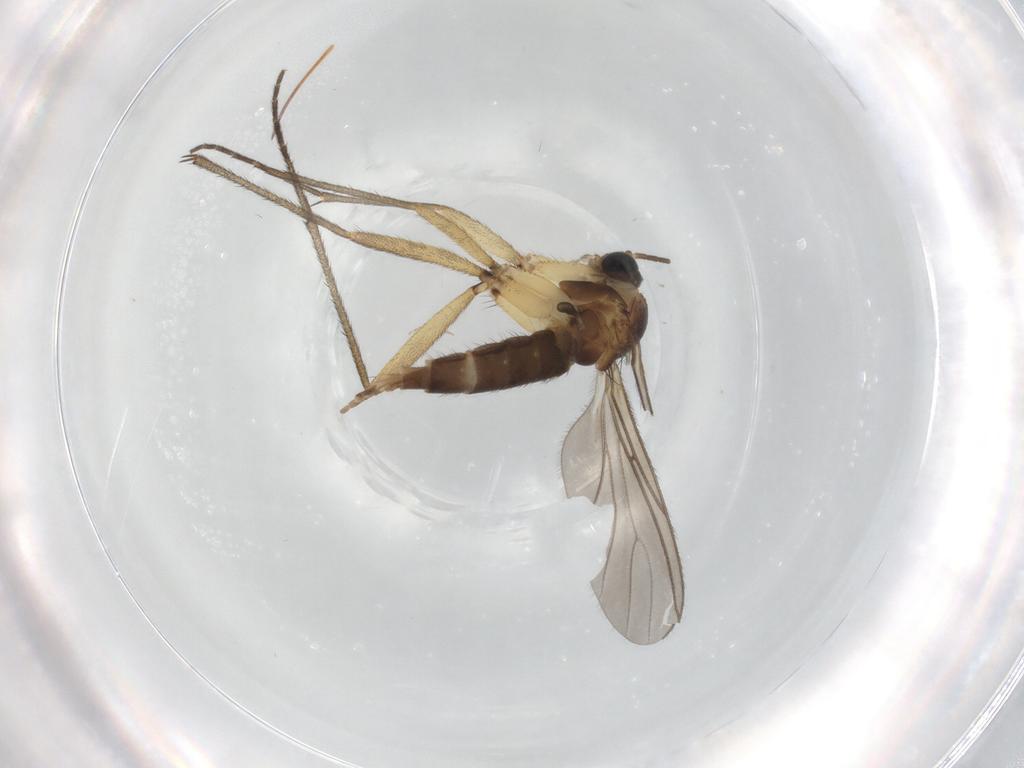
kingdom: Animalia
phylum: Arthropoda
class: Insecta
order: Diptera
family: Sciaridae
